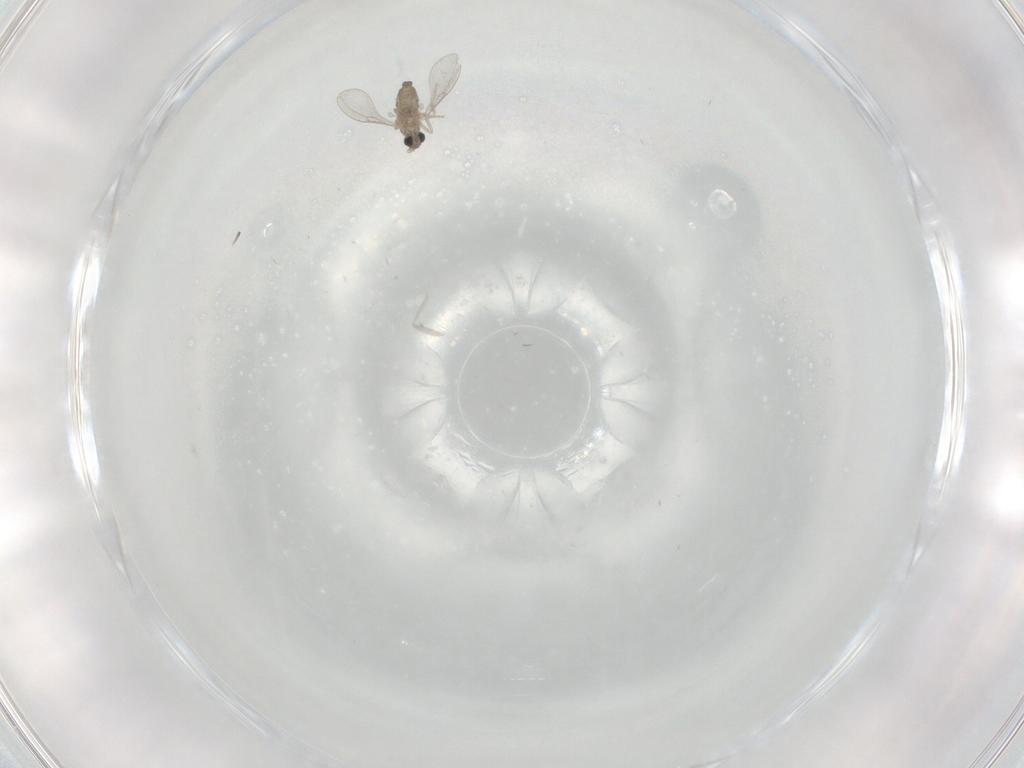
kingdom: Animalia
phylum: Arthropoda
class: Insecta
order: Diptera
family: Cecidomyiidae
